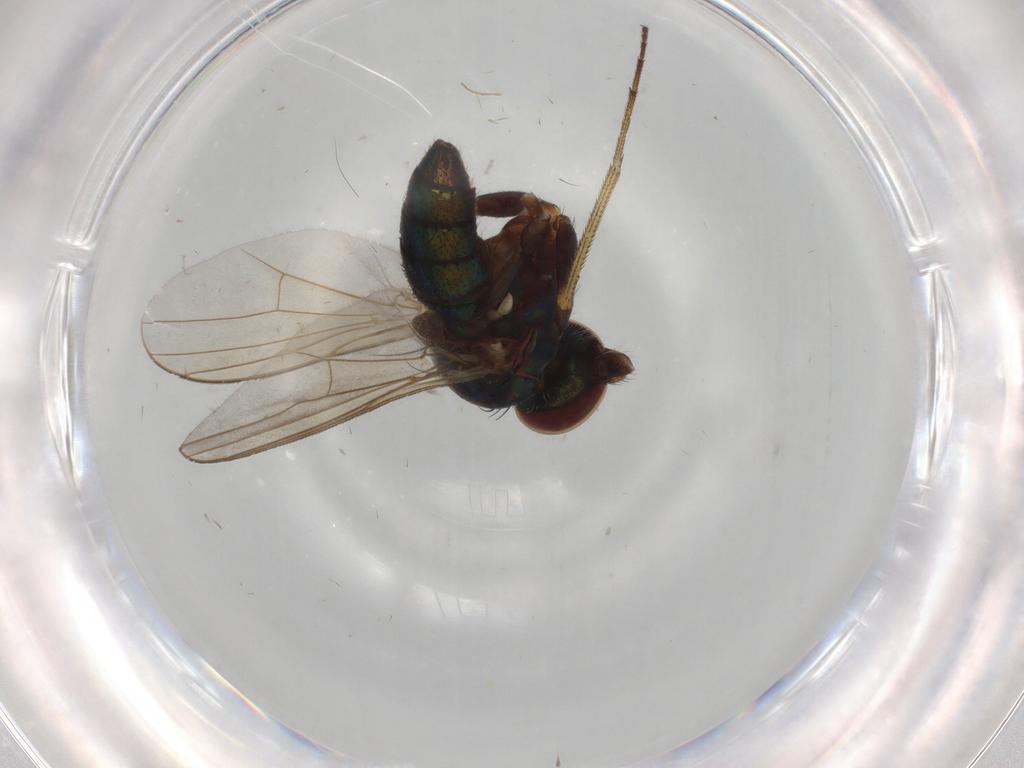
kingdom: Animalia
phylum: Arthropoda
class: Insecta
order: Diptera
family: Dolichopodidae
